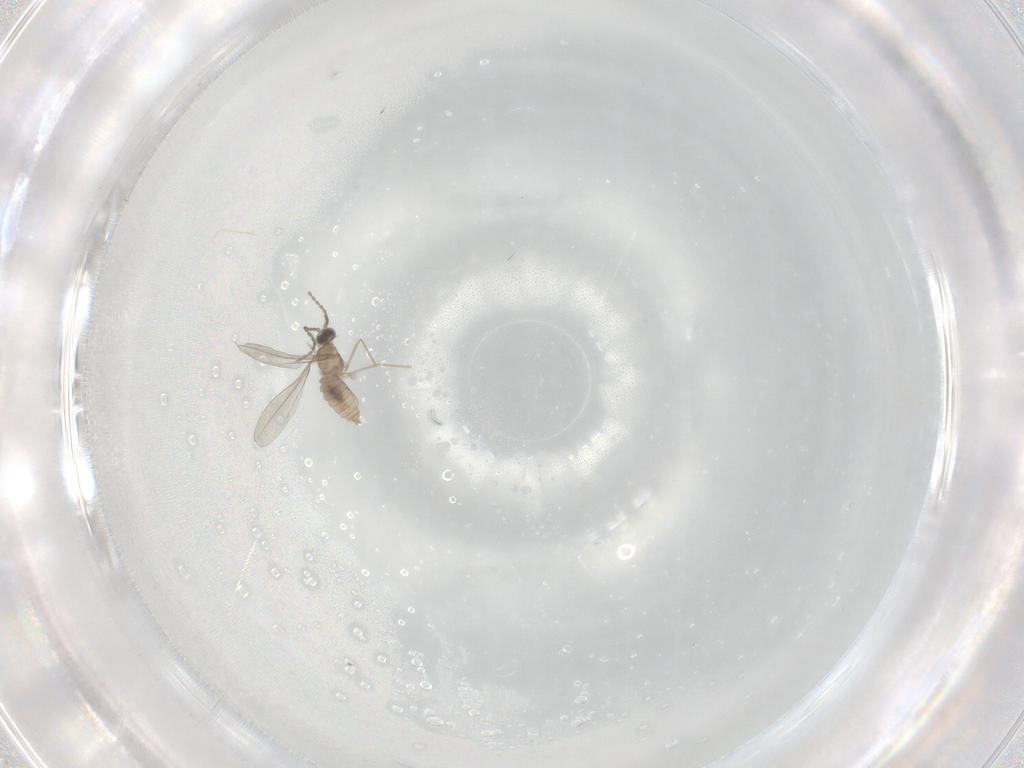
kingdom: Animalia
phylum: Arthropoda
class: Insecta
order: Diptera
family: Cecidomyiidae
